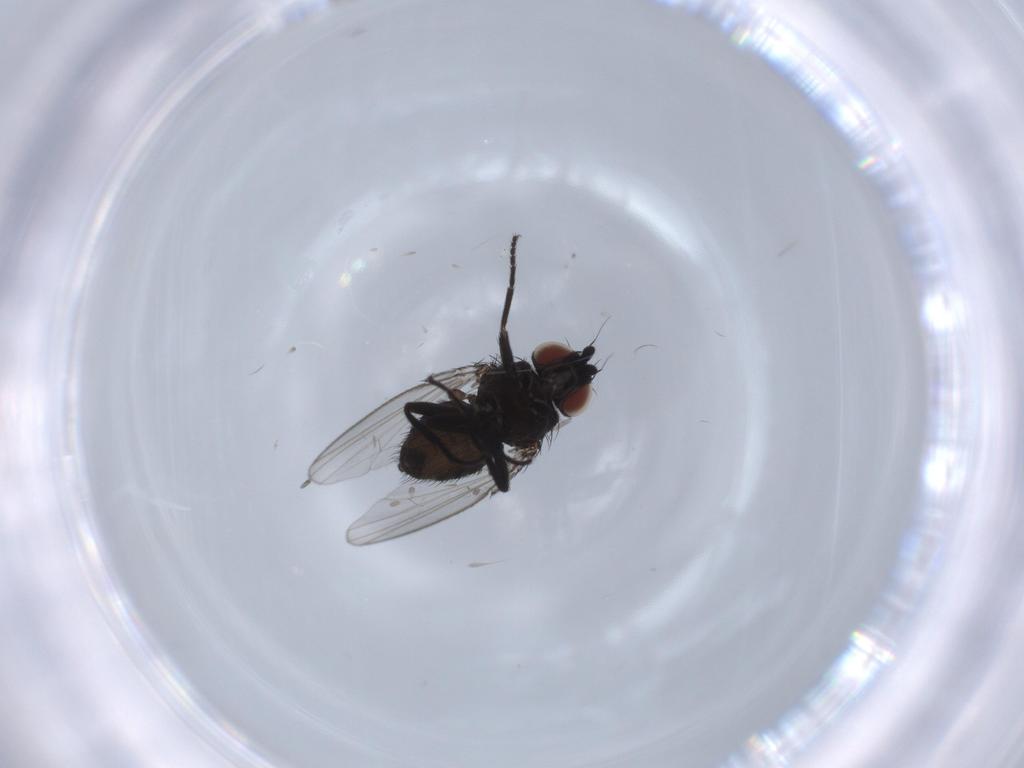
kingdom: Animalia
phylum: Arthropoda
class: Insecta
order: Diptera
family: Milichiidae
